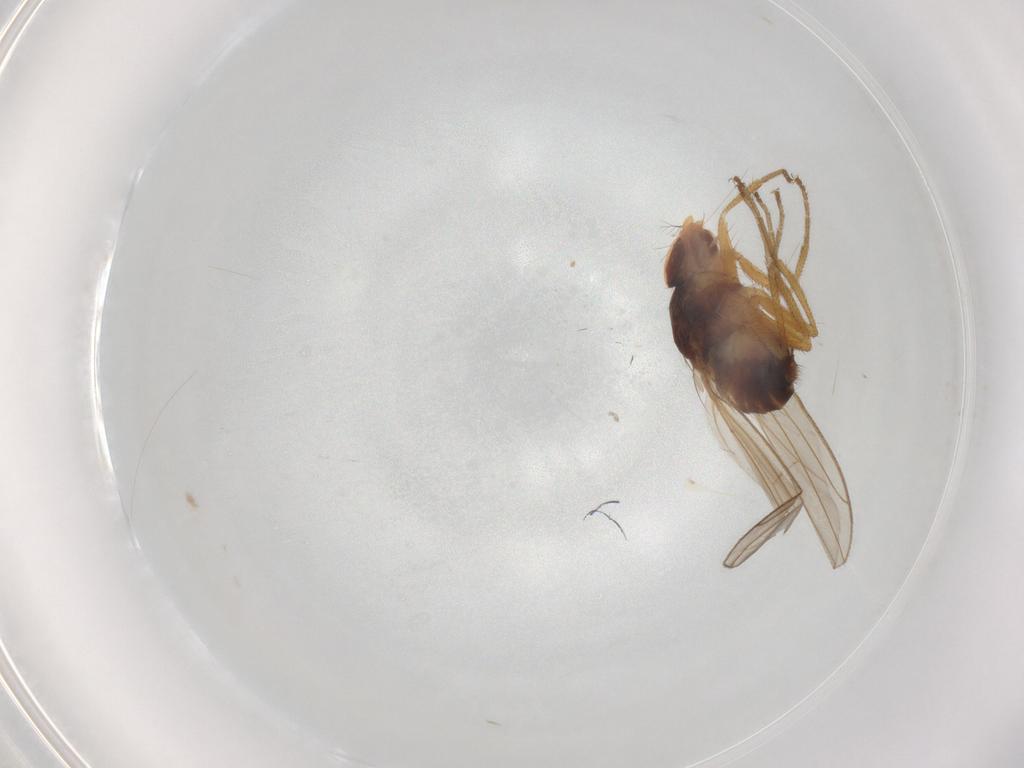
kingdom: Animalia
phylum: Arthropoda
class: Insecta
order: Diptera
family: Drosophilidae
